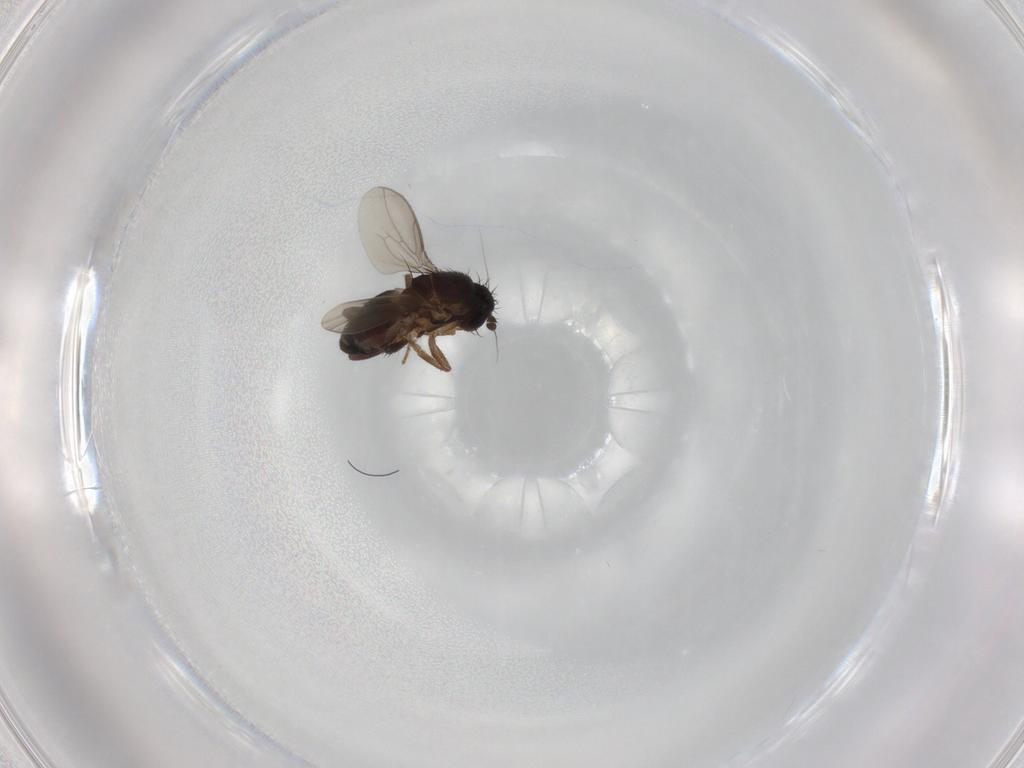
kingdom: Animalia
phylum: Arthropoda
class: Insecta
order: Diptera
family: Sphaeroceridae
